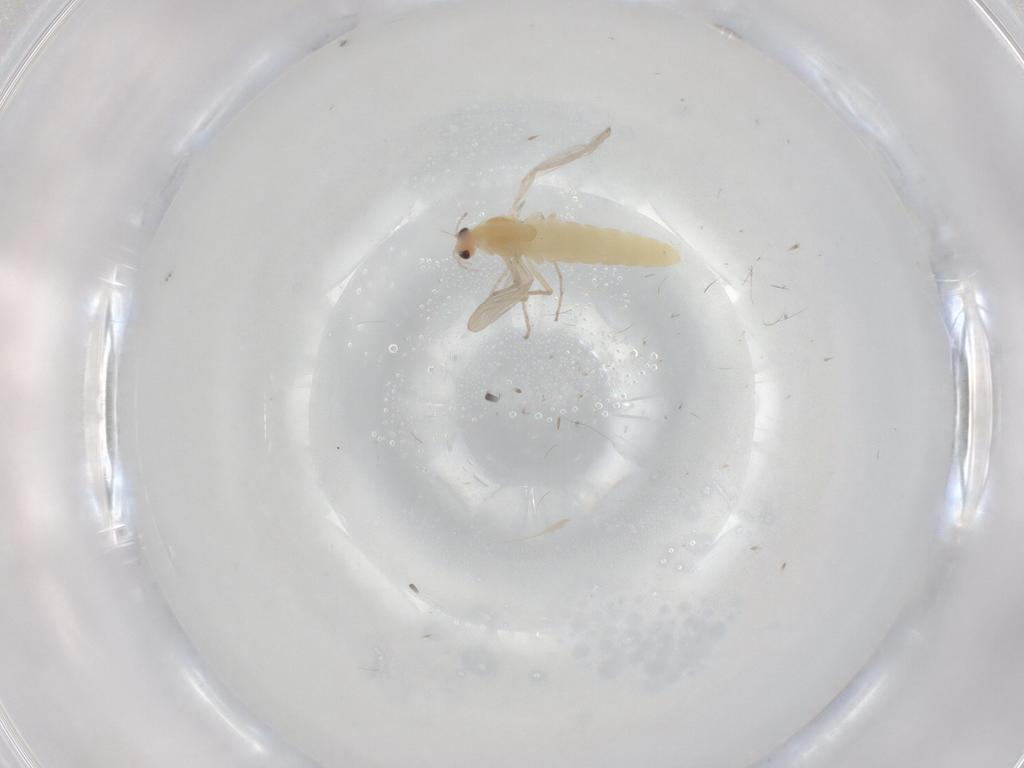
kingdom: Animalia
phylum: Arthropoda
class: Insecta
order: Diptera
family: Chironomidae
